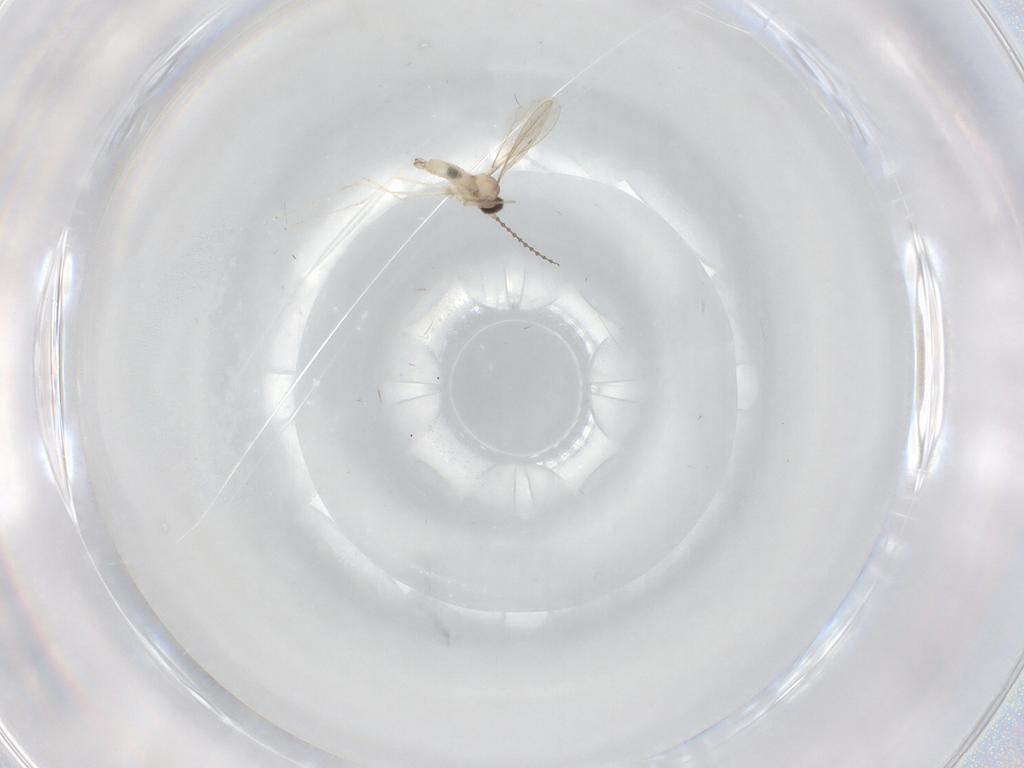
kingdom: Animalia
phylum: Arthropoda
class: Insecta
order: Diptera
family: Cecidomyiidae
